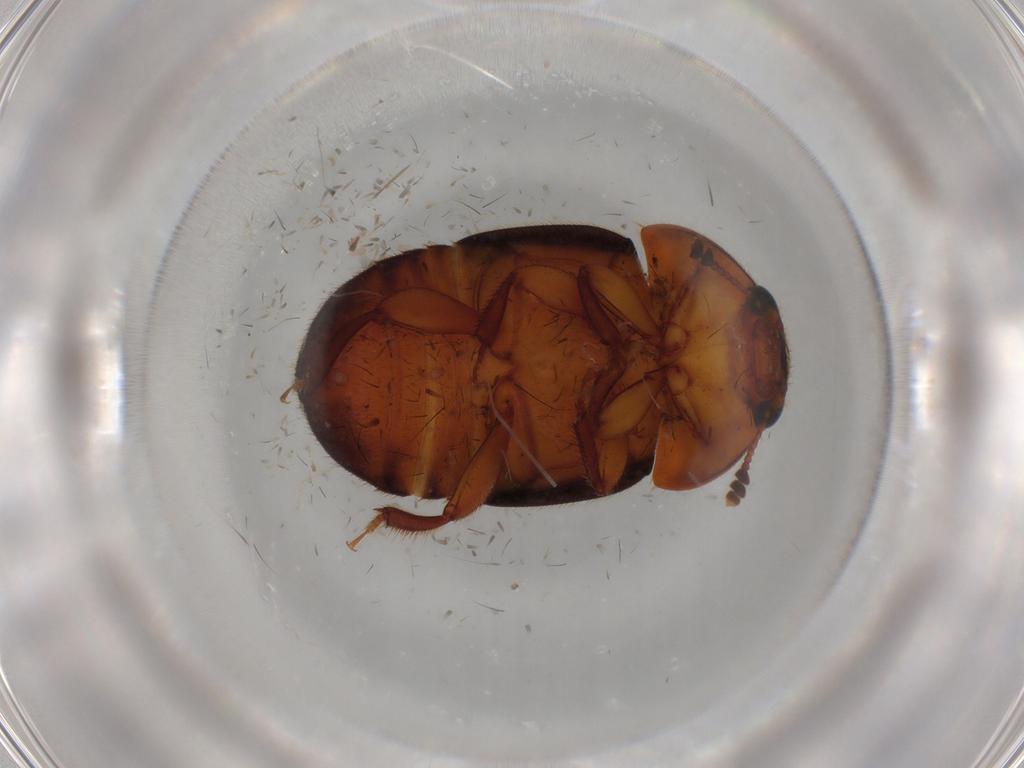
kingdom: Animalia
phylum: Arthropoda
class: Insecta
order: Coleoptera
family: Nitidulidae
